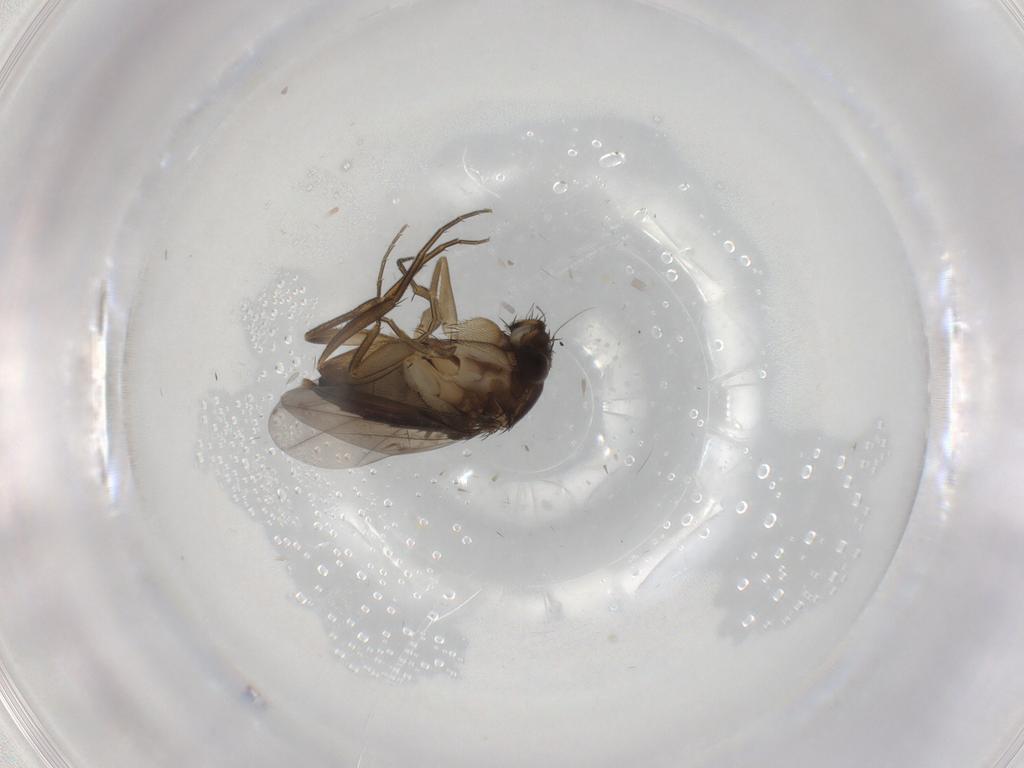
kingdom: Animalia
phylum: Arthropoda
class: Insecta
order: Diptera
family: Phoridae
